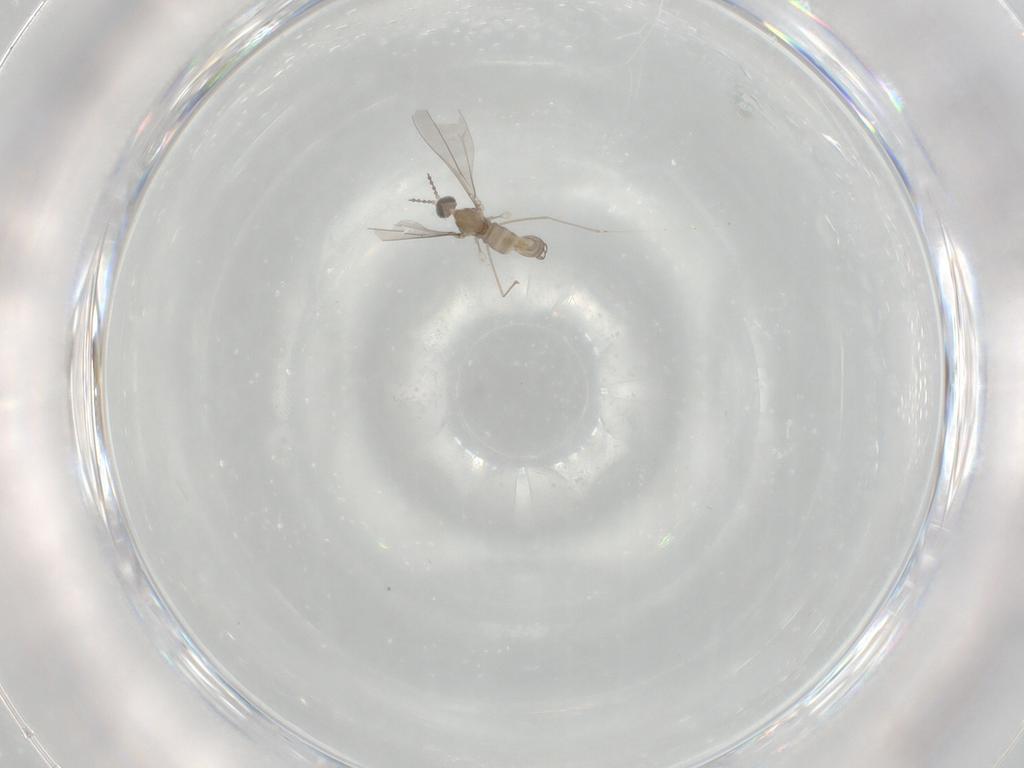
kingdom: Animalia
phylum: Arthropoda
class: Insecta
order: Diptera
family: Cecidomyiidae
